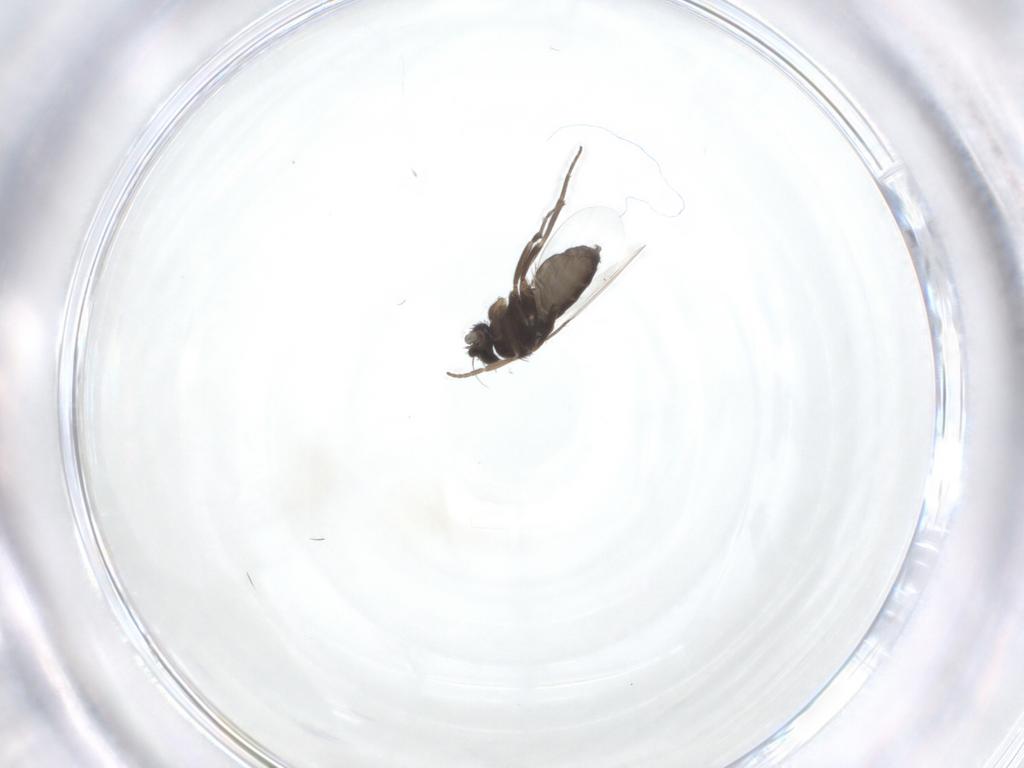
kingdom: Animalia
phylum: Arthropoda
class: Insecta
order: Diptera
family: Phoridae
